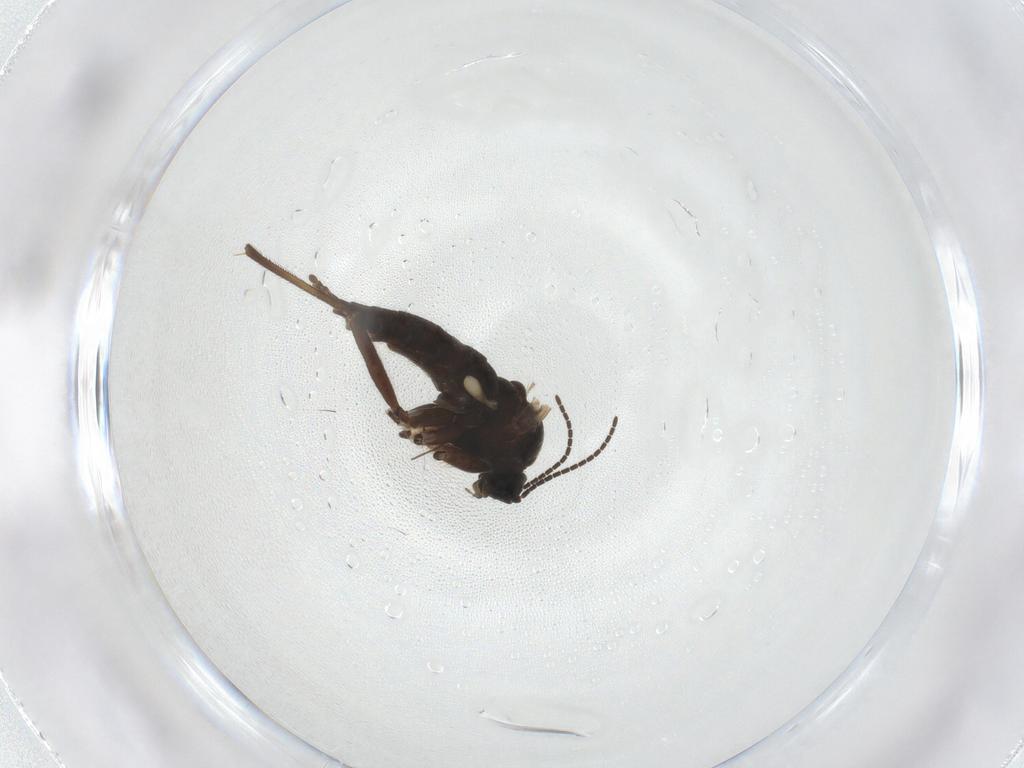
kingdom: Animalia
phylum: Arthropoda
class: Insecta
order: Diptera
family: Sciaridae
